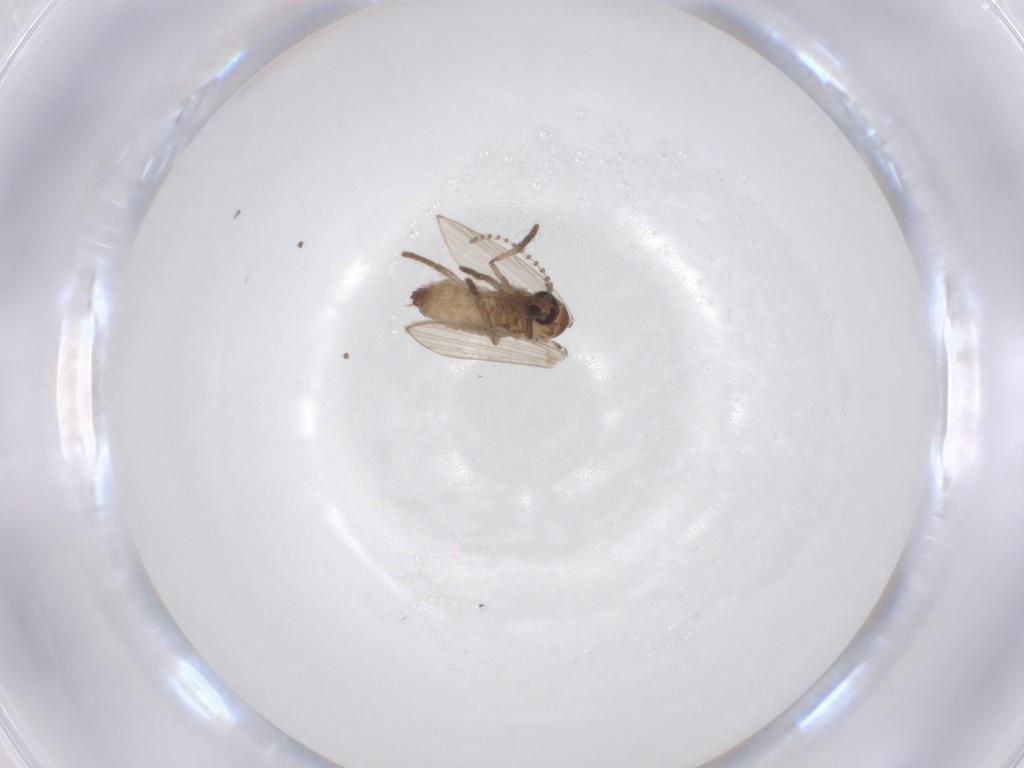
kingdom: Animalia
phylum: Arthropoda
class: Insecta
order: Diptera
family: Psychodidae
